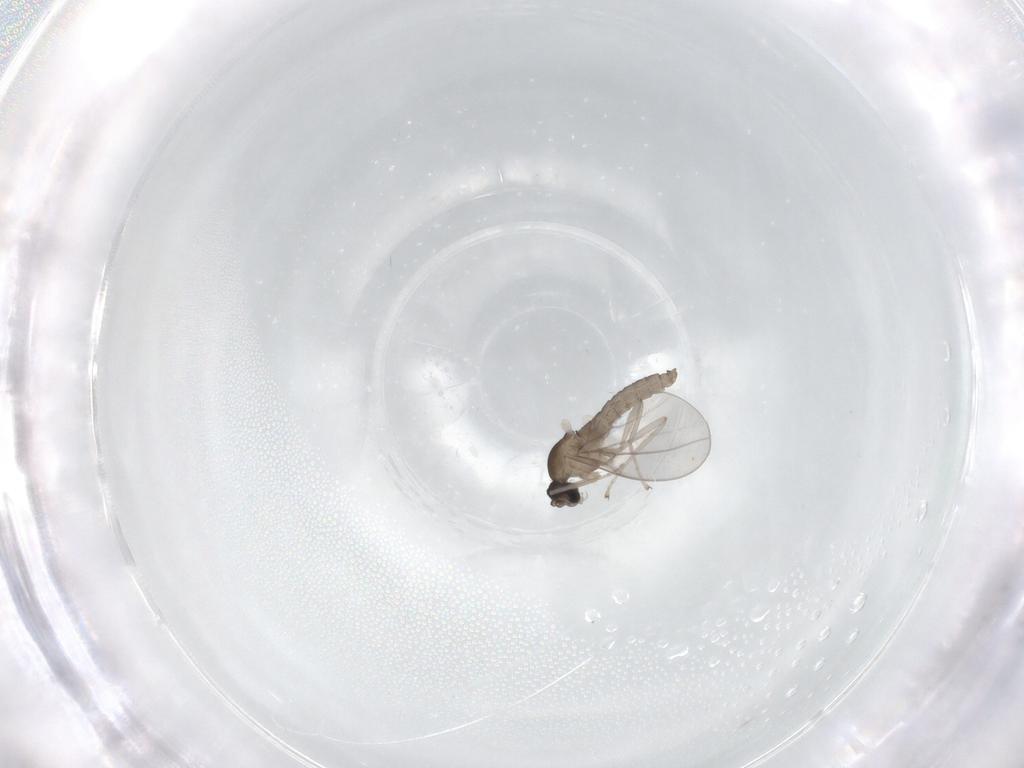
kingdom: Animalia
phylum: Arthropoda
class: Insecta
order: Diptera
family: Cecidomyiidae
